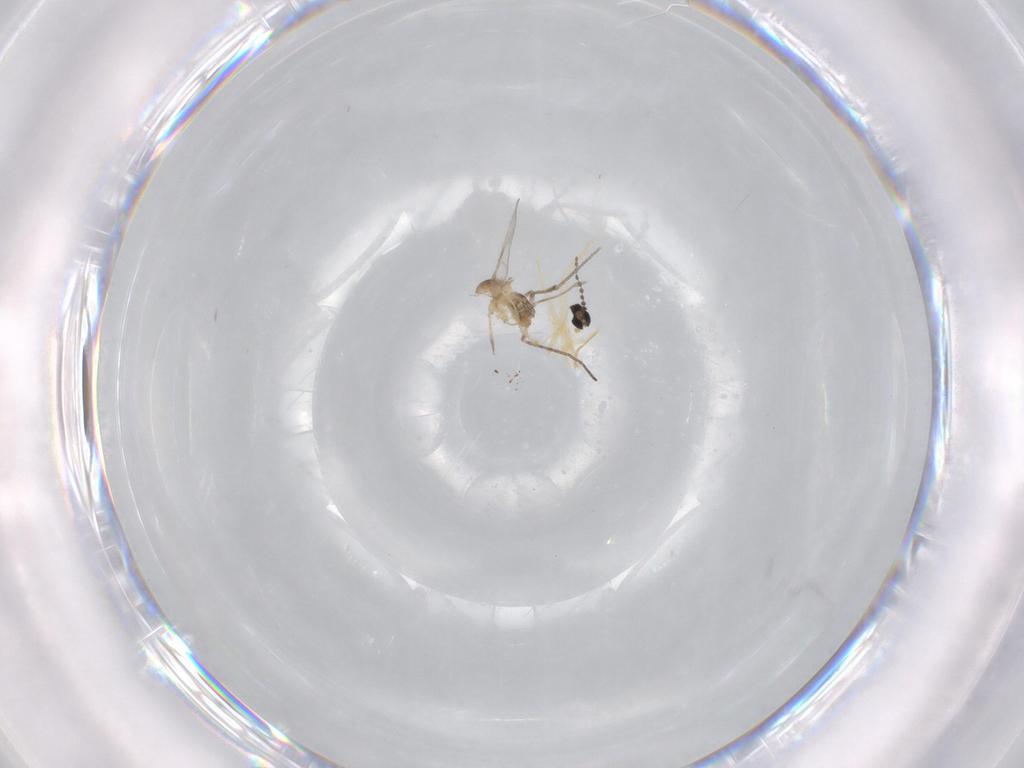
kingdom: Animalia
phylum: Arthropoda
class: Insecta
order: Diptera
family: Cecidomyiidae
